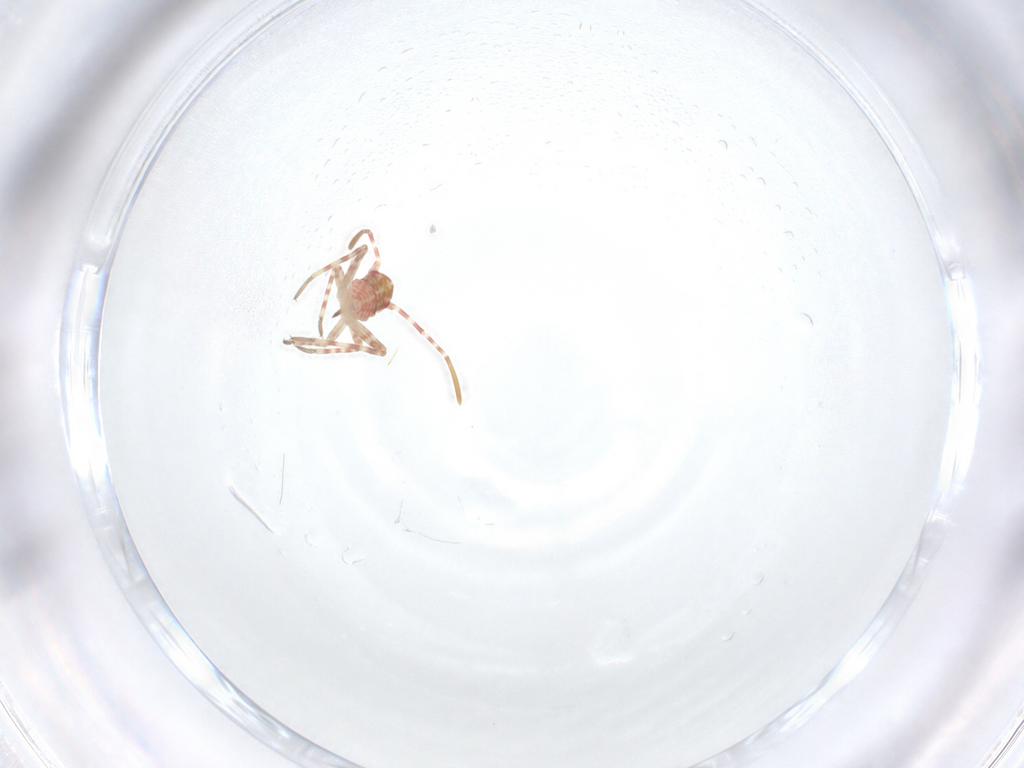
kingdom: Animalia
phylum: Arthropoda
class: Insecta
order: Hemiptera
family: Miridae
